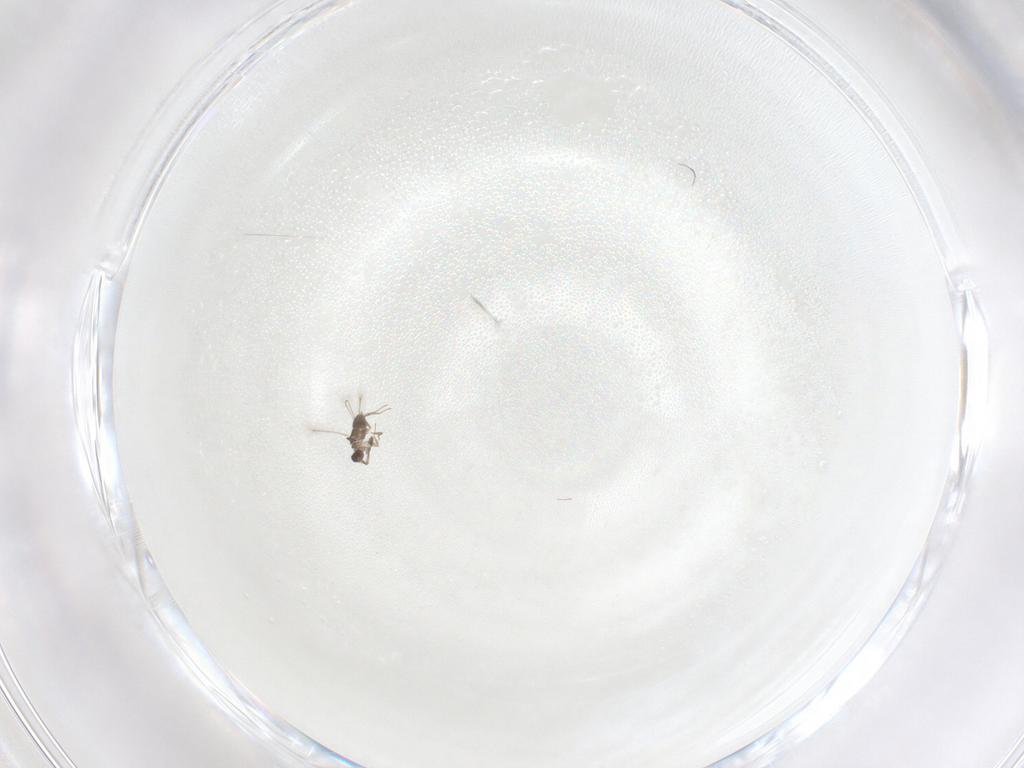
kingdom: Animalia
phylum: Arthropoda
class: Insecta
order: Hymenoptera
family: Mymaridae
